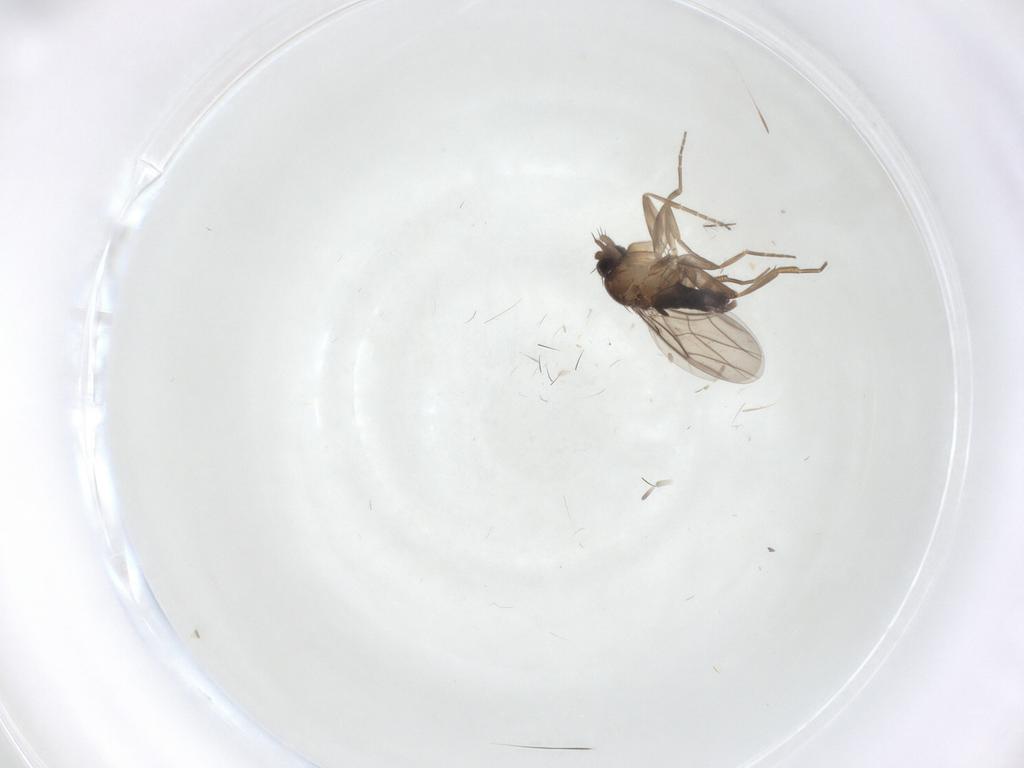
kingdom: Animalia
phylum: Arthropoda
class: Insecta
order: Diptera
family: Phoridae
